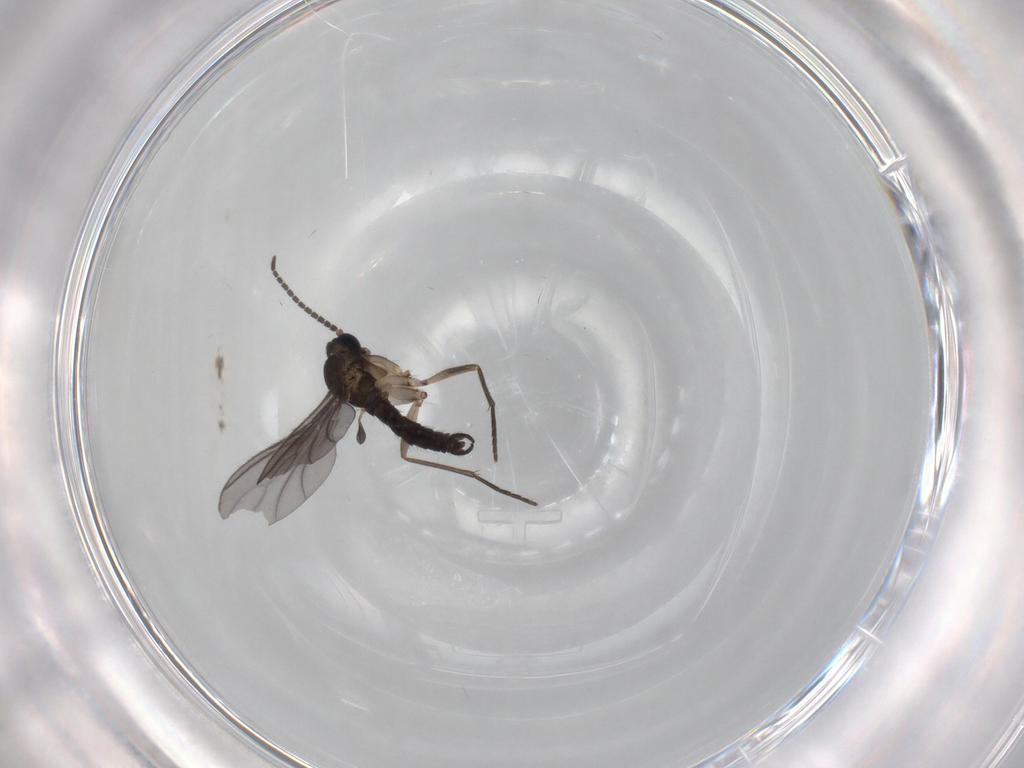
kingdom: Animalia
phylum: Arthropoda
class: Insecta
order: Diptera
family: Sciaridae
